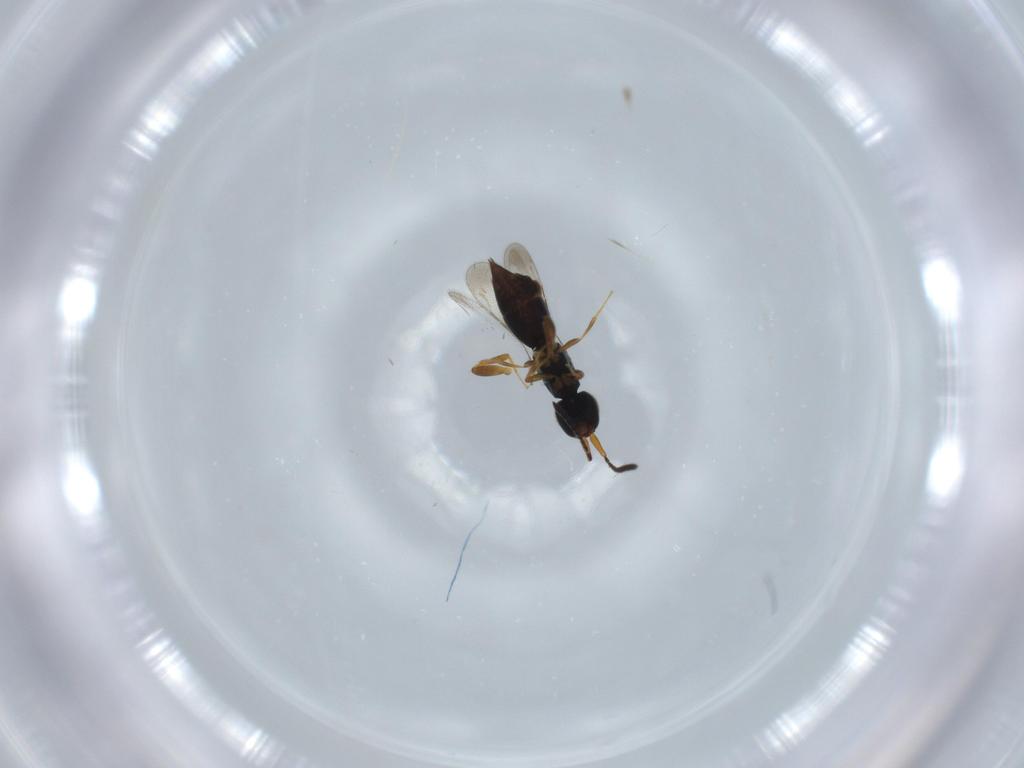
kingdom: Animalia
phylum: Arthropoda
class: Insecta
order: Hymenoptera
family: Ceraphronidae
